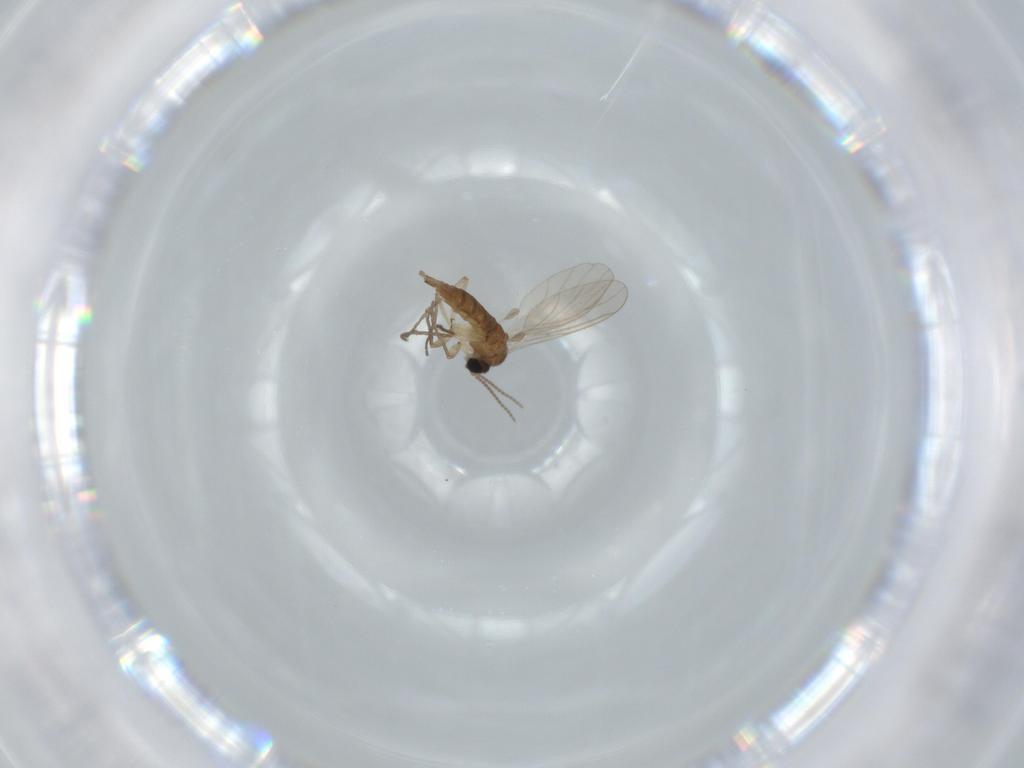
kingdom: Animalia
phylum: Arthropoda
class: Insecta
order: Diptera
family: Sciaridae
